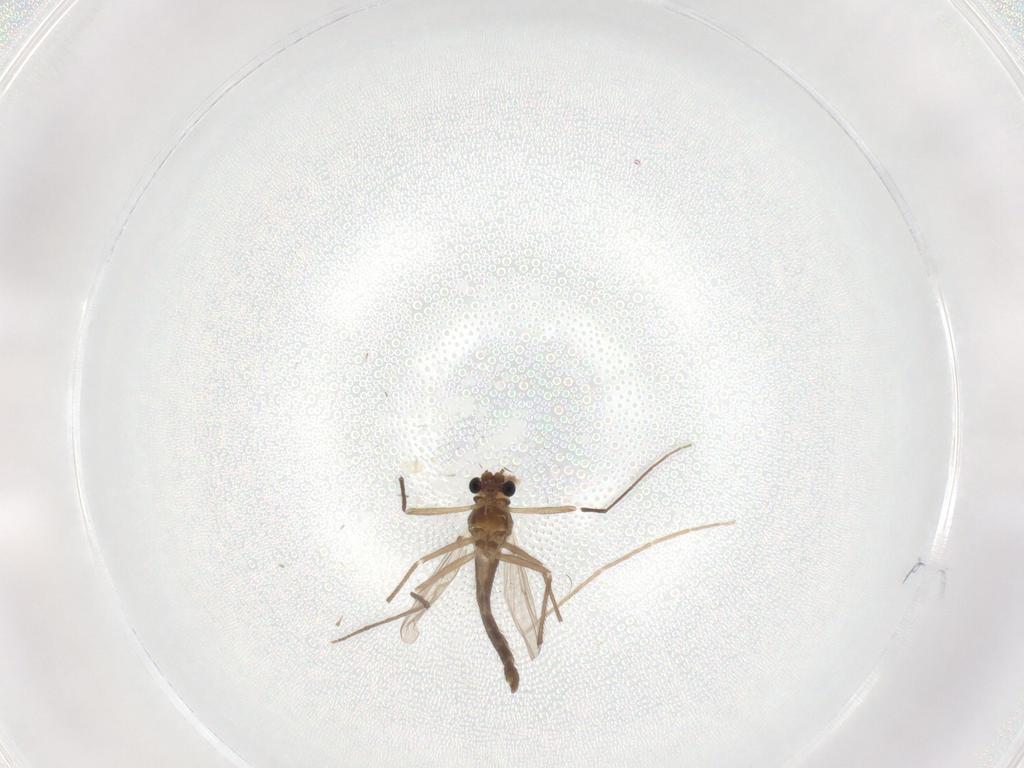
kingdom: Animalia
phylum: Arthropoda
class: Insecta
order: Diptera
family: Chironomidae
